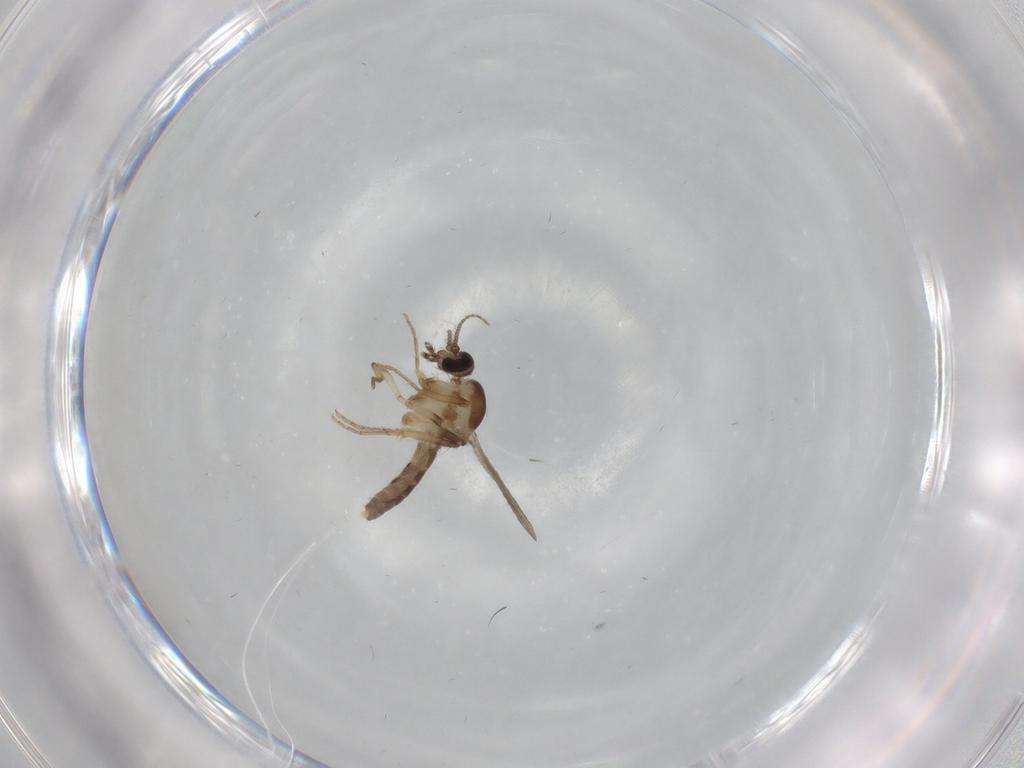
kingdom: Animalia
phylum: Arthropoda
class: Insecta
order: Diptera
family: Ceratopogonidae
